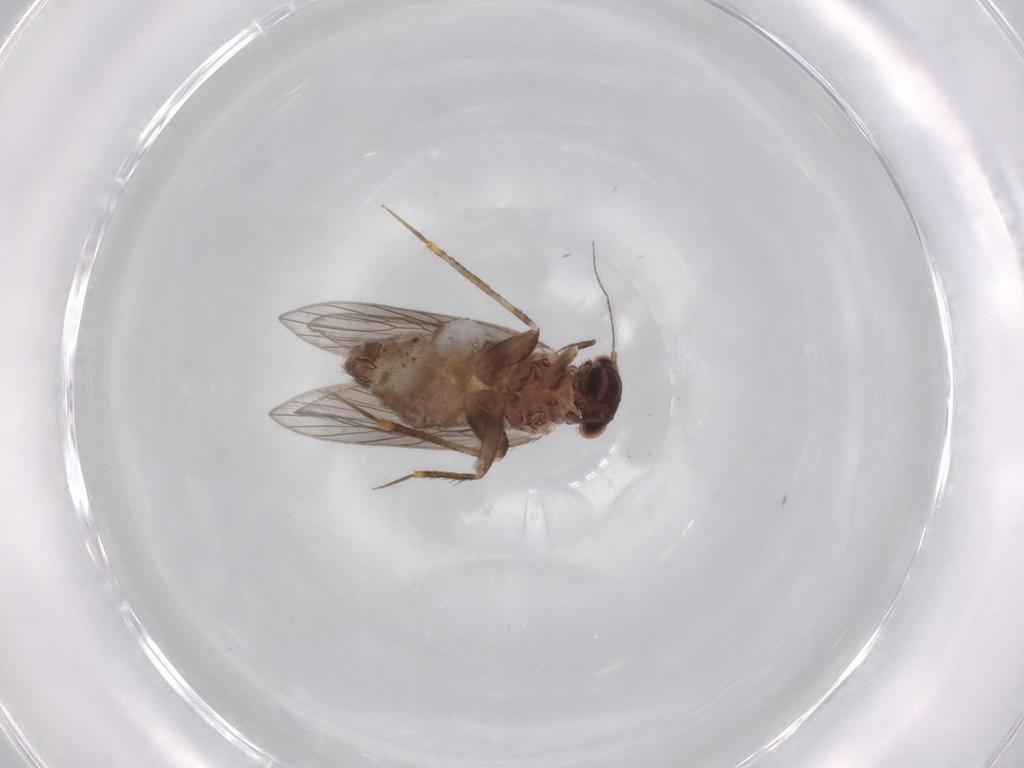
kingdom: Animalia
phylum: Arthropoda
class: Insecta
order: Psocodea
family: Lepidopsocidae
